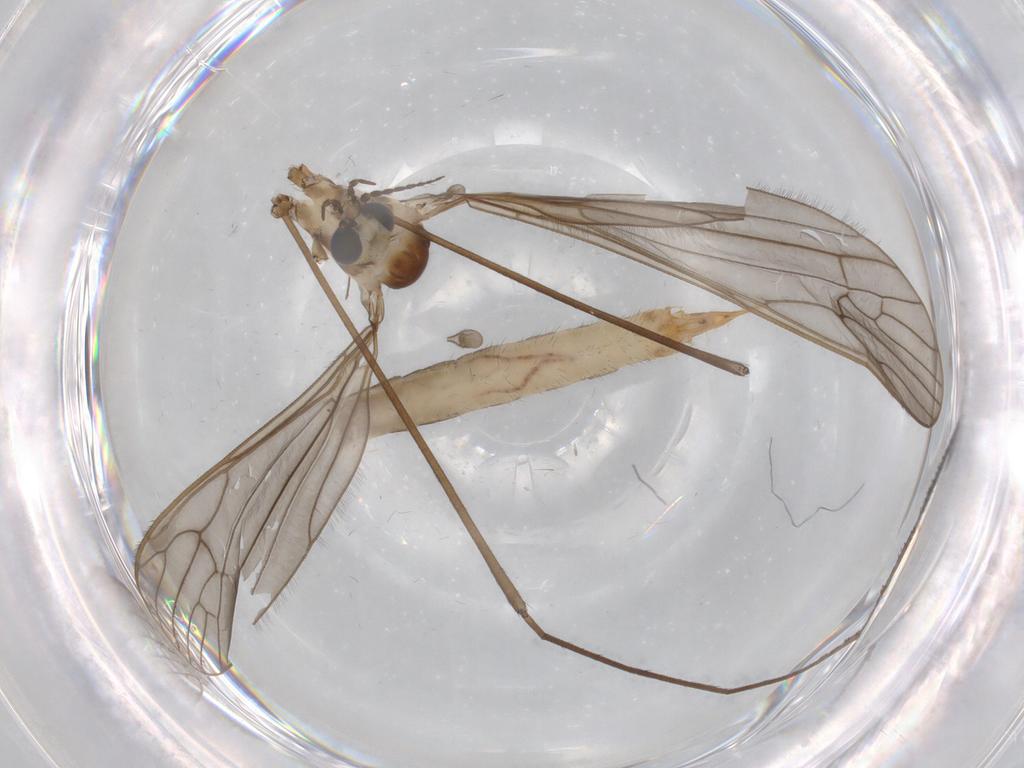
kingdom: Animalia
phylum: Arthropoda
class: Insecta
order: Diptera
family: Limoniidae
